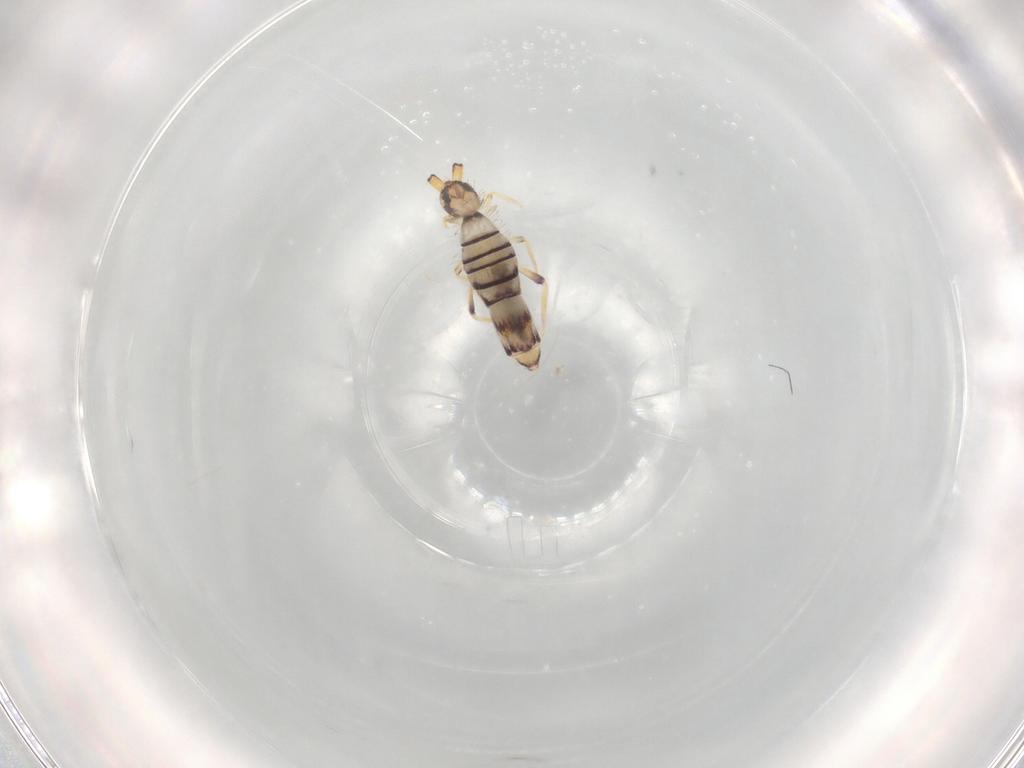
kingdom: Animalia
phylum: Arthropoda
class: Collembola
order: Entomobryomorpha
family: Entomobryidae
